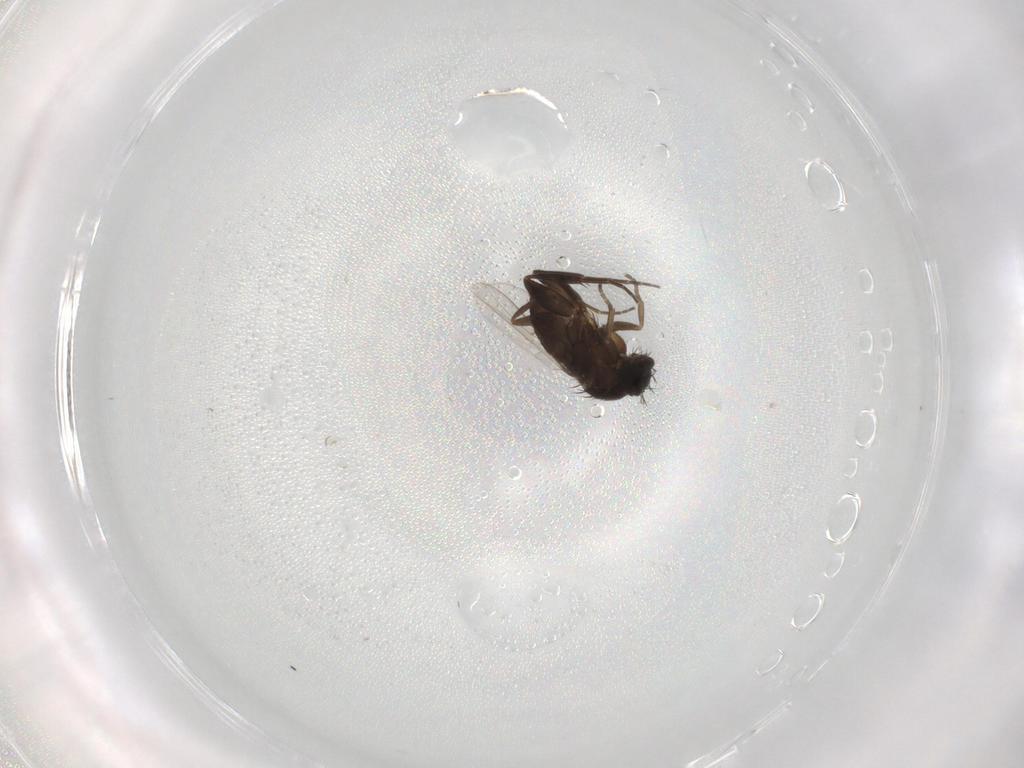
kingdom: Animalia
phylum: Arthropoda
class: Insecta
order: Diptera
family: Phoridae
